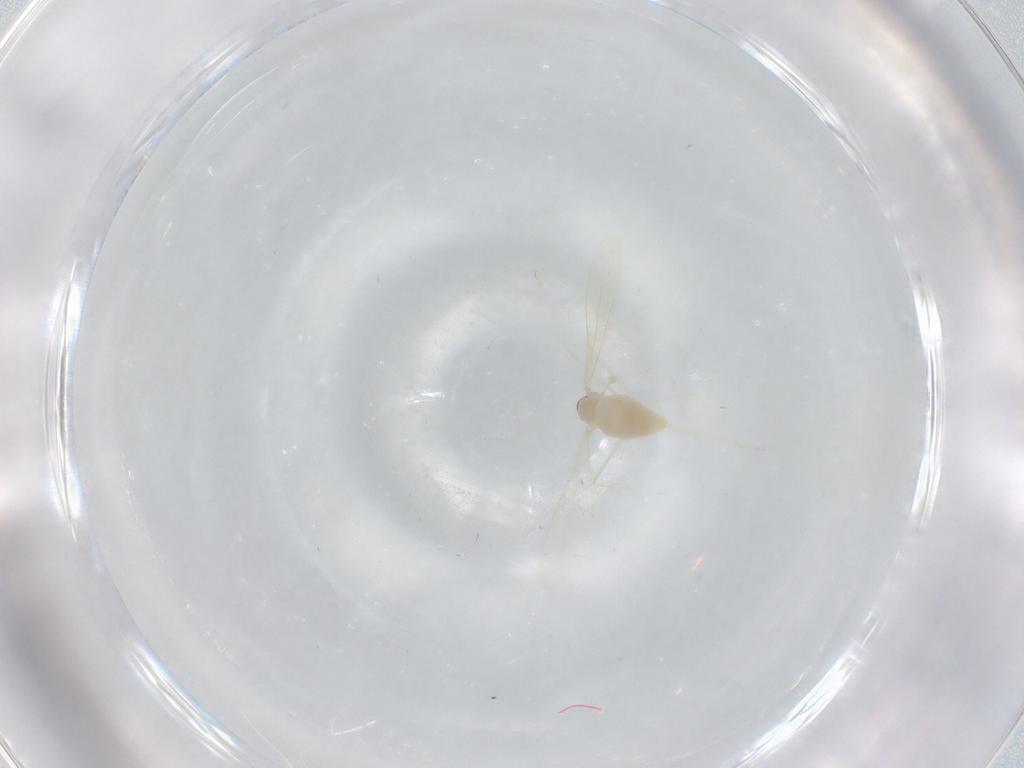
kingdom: Animalia
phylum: Arthropoda
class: Insecta
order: Diptera
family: Cecidomyiidae
